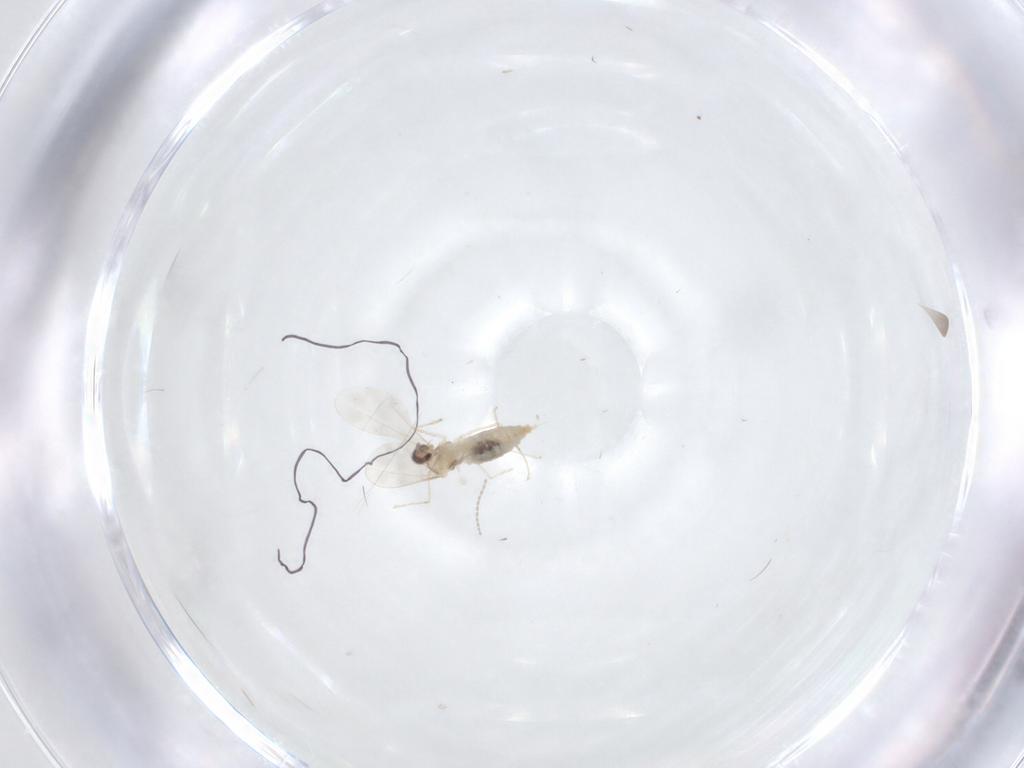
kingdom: Animalia
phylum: Arthropoda
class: Insecta
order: Diptera
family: Cecidomyiidae
